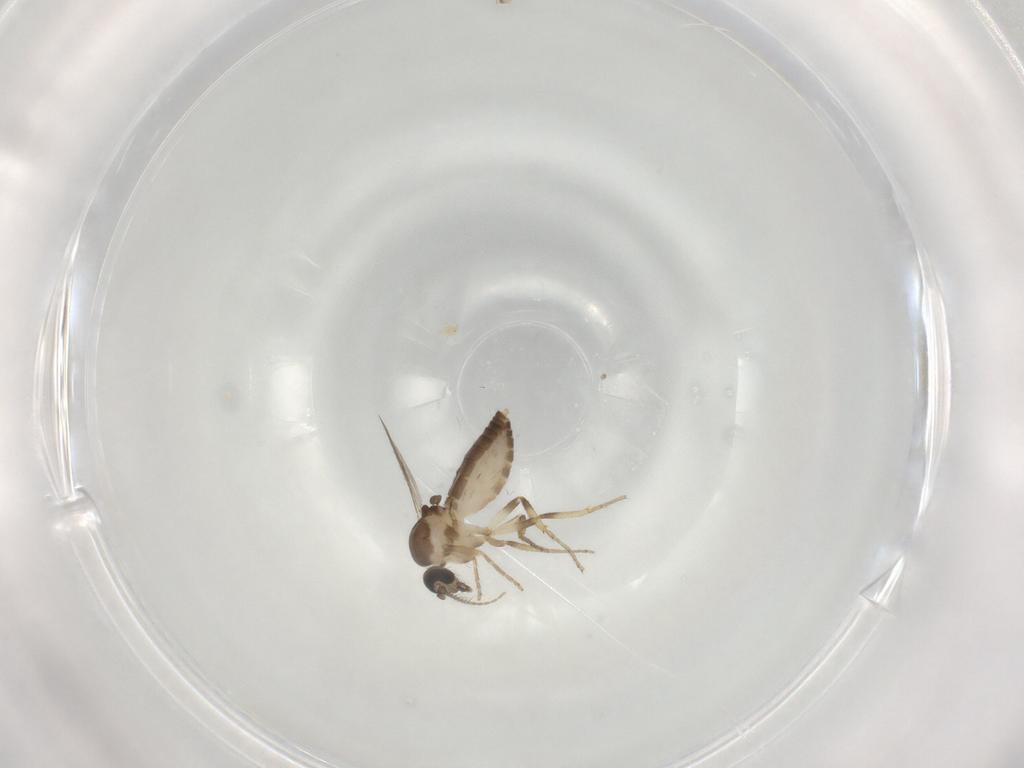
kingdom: Animalia
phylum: Arthropoda
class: Insecta
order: Diptera
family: Ceratopogonidae
